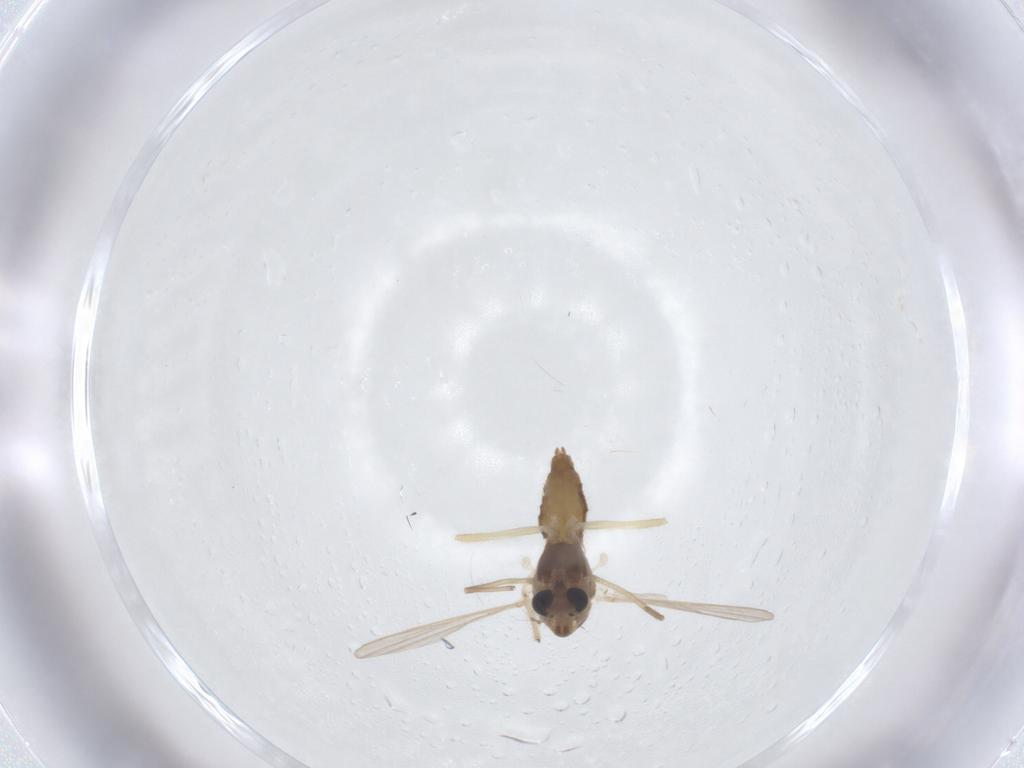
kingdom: Animalia
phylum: Arthropoda
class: Insecta
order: Diptera
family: Chironomidae
